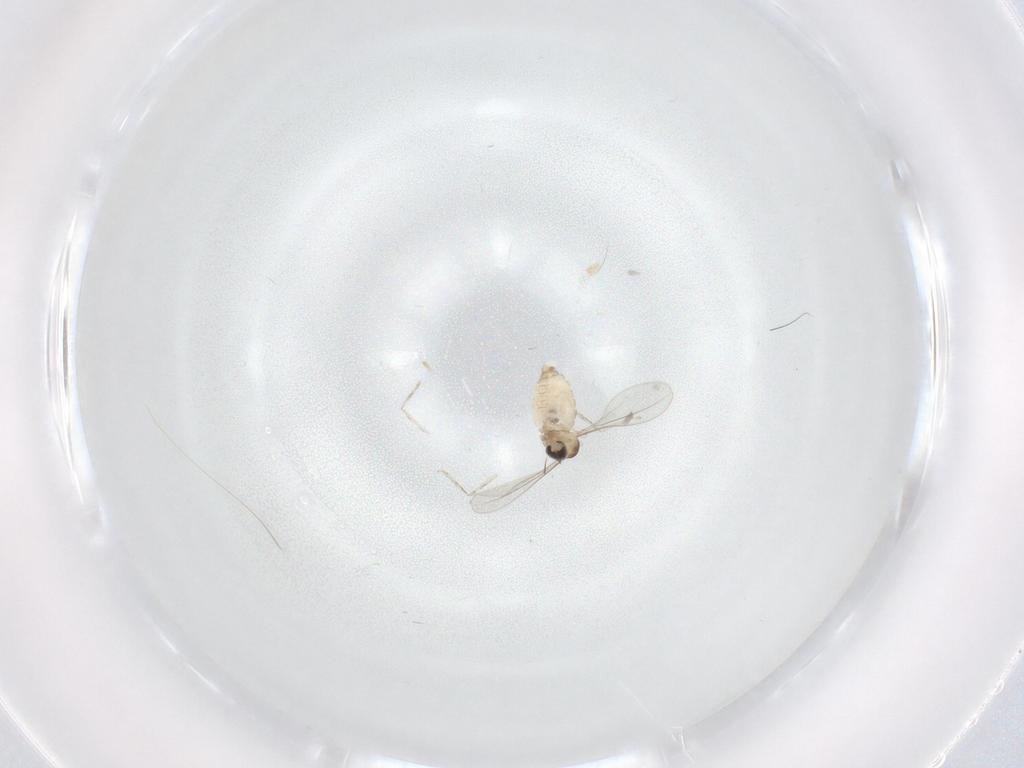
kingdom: Animalia
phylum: Arthropoda
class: Insecta
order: Diptera
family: Cecidomyiidae
